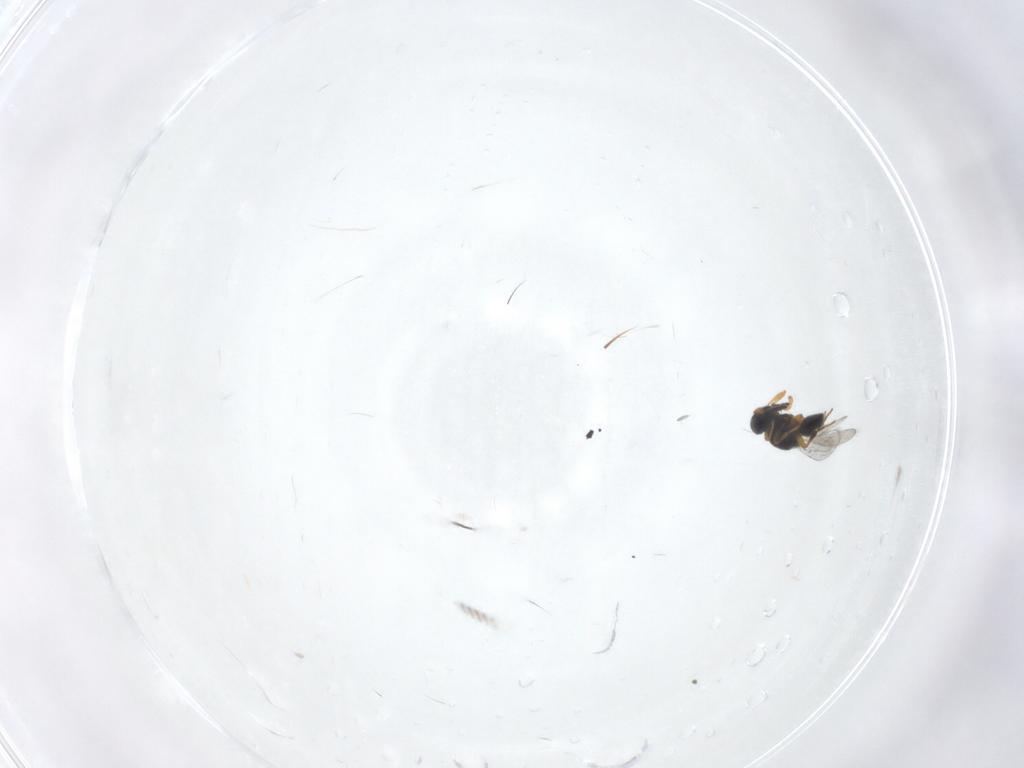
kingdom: Animalia
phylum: Arthropoda
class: Insecta
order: Hymenoptera
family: Platygastridae
